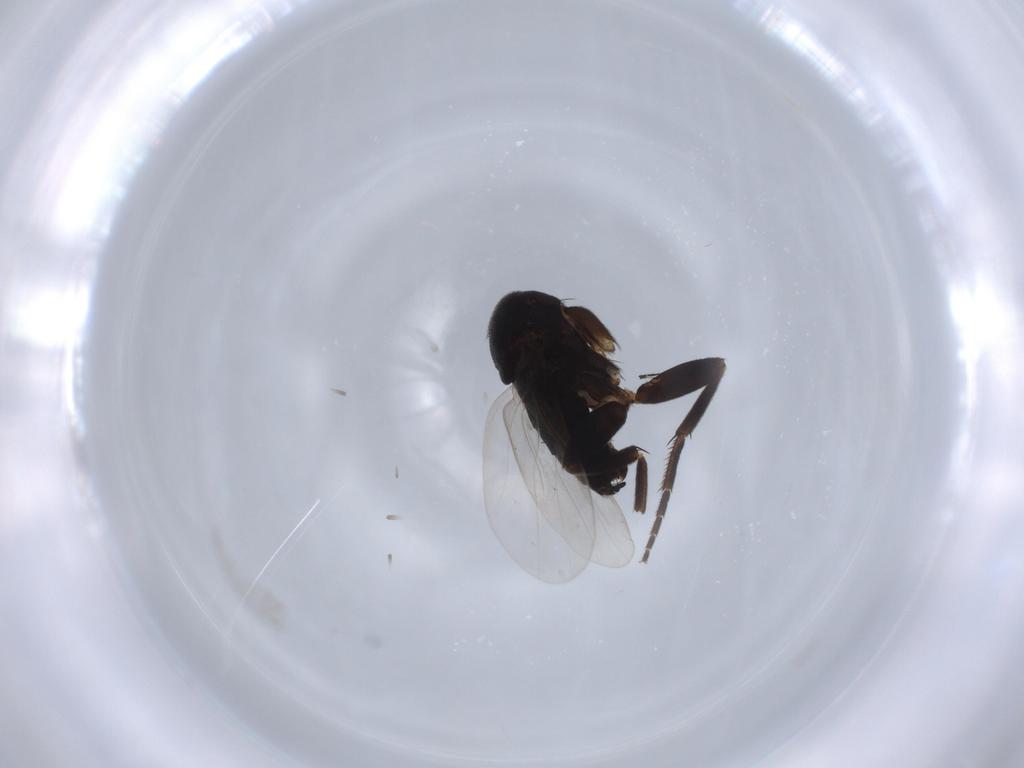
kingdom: Animalia
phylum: Arthropoda
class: Insecta
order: Diptera
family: Phoridae
